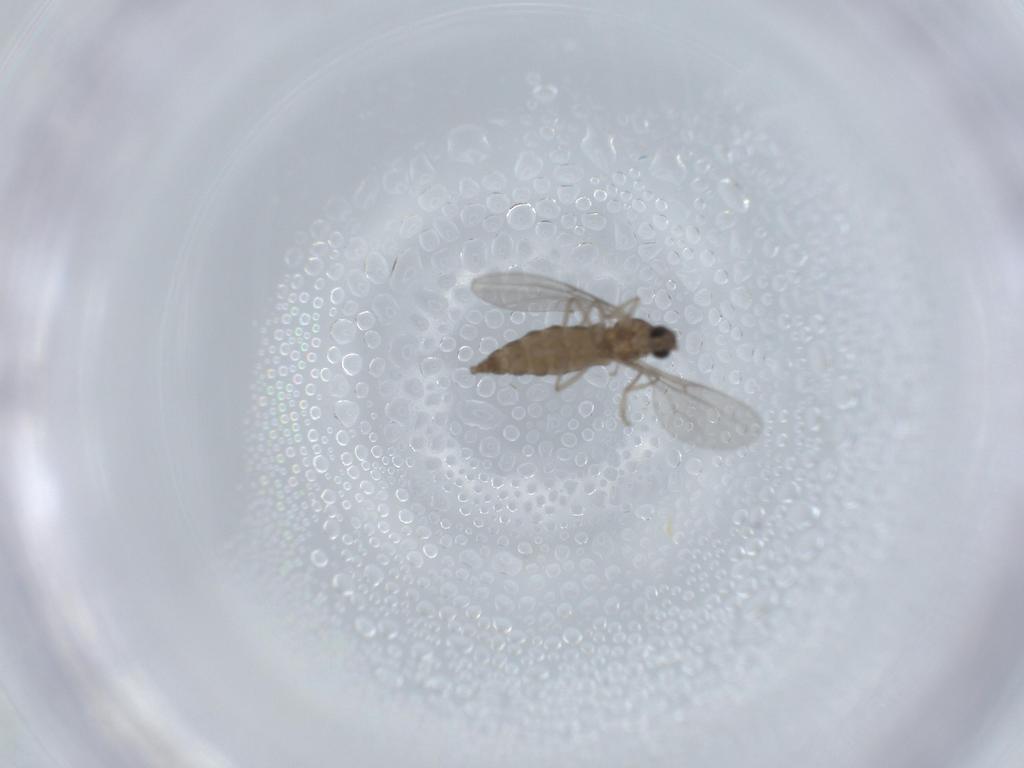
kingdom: Animalia
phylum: Arthropoda
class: Insecta
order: Diptera
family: Cecidomyiidae
